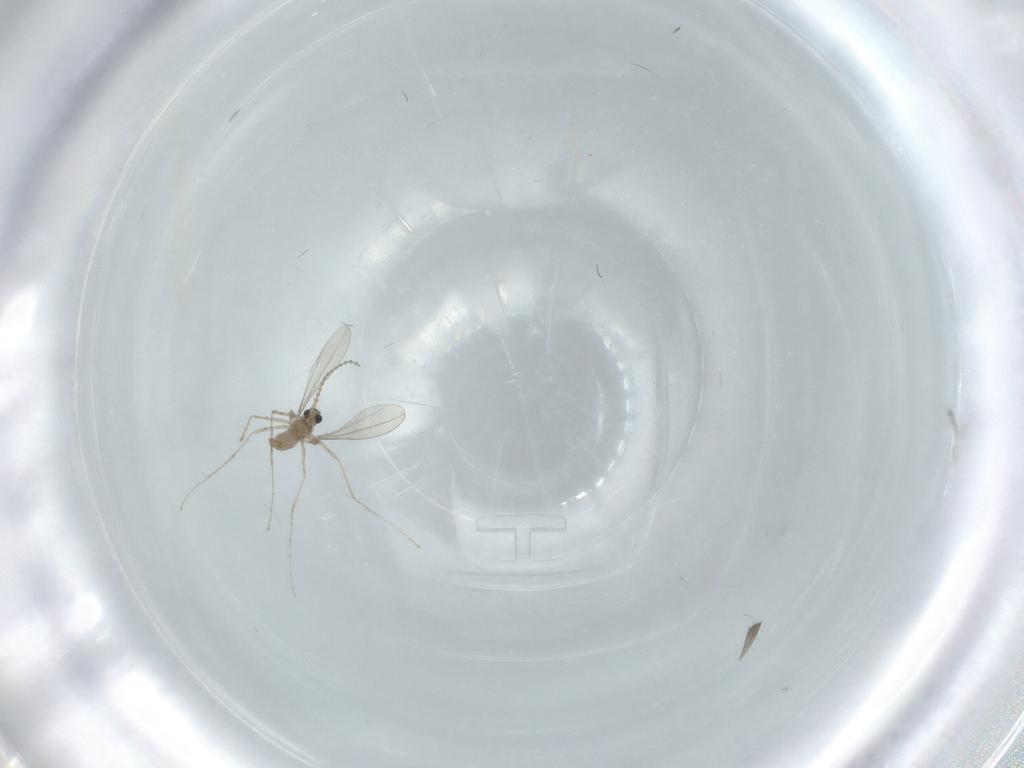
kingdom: Animalia
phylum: Arthropoda
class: Insecta
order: Diptera
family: Cecidomyiidae
